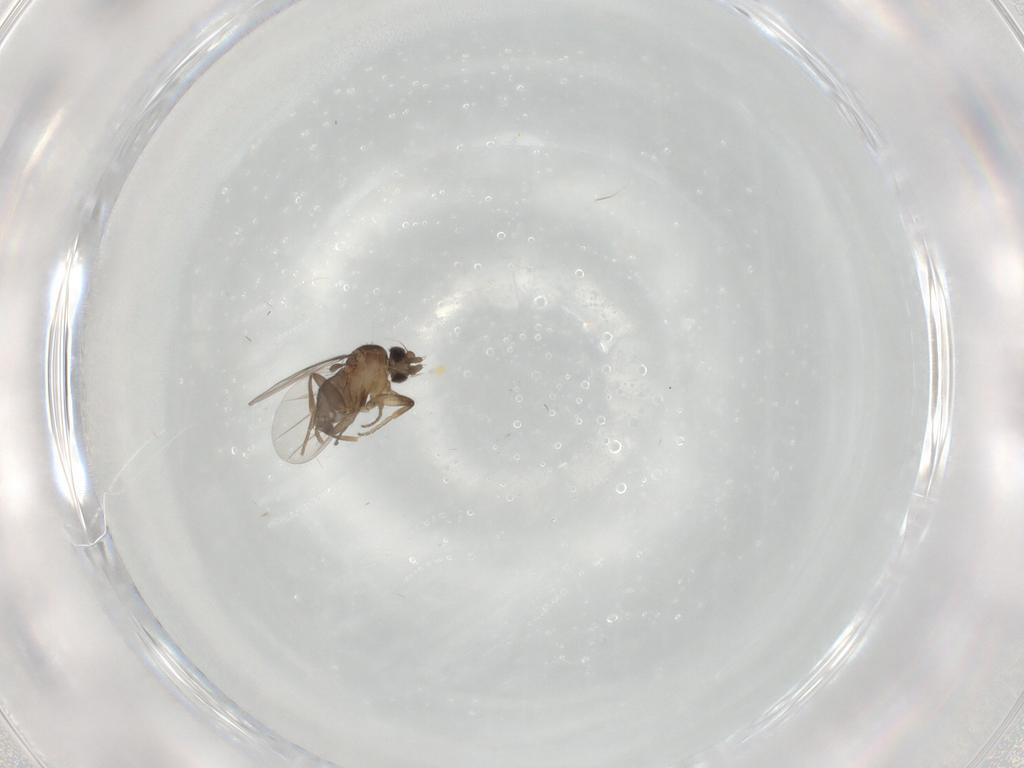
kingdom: Animalia
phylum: Arthropoda
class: Insecta
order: Diptera
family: Phoridae
